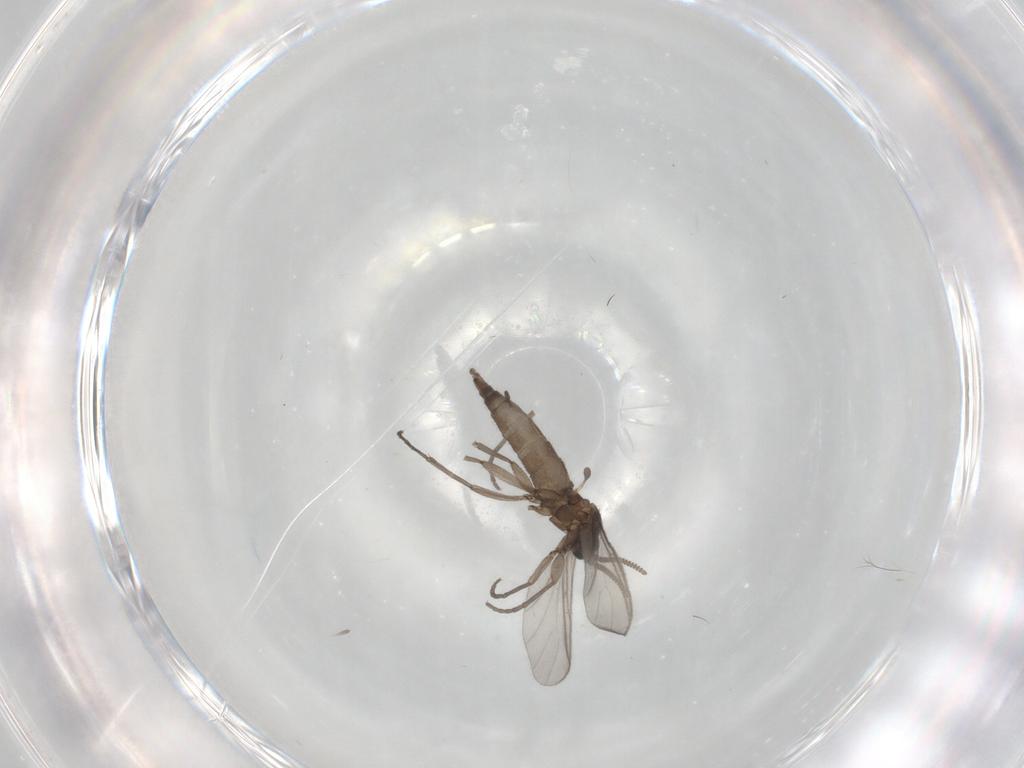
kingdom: Animalia
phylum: Arthropoda
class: Insecta
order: Diptera
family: Sciaridae
